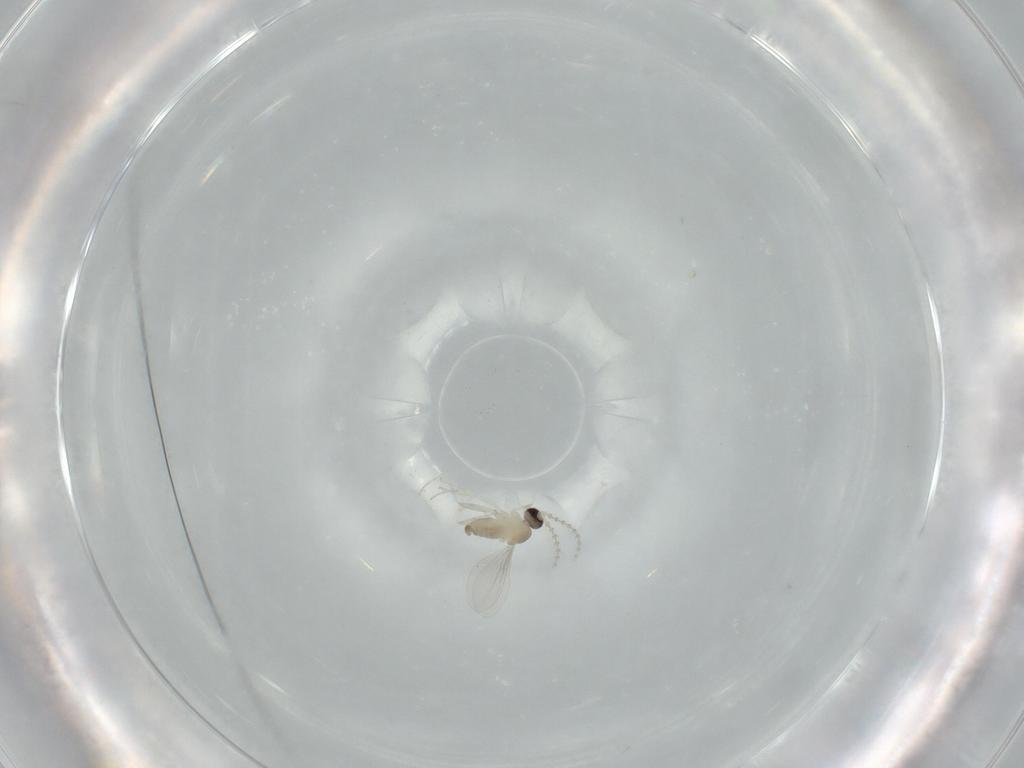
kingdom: Animalia
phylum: Arthropoda
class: Insecta
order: Diptera
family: Cecidomyiidae
